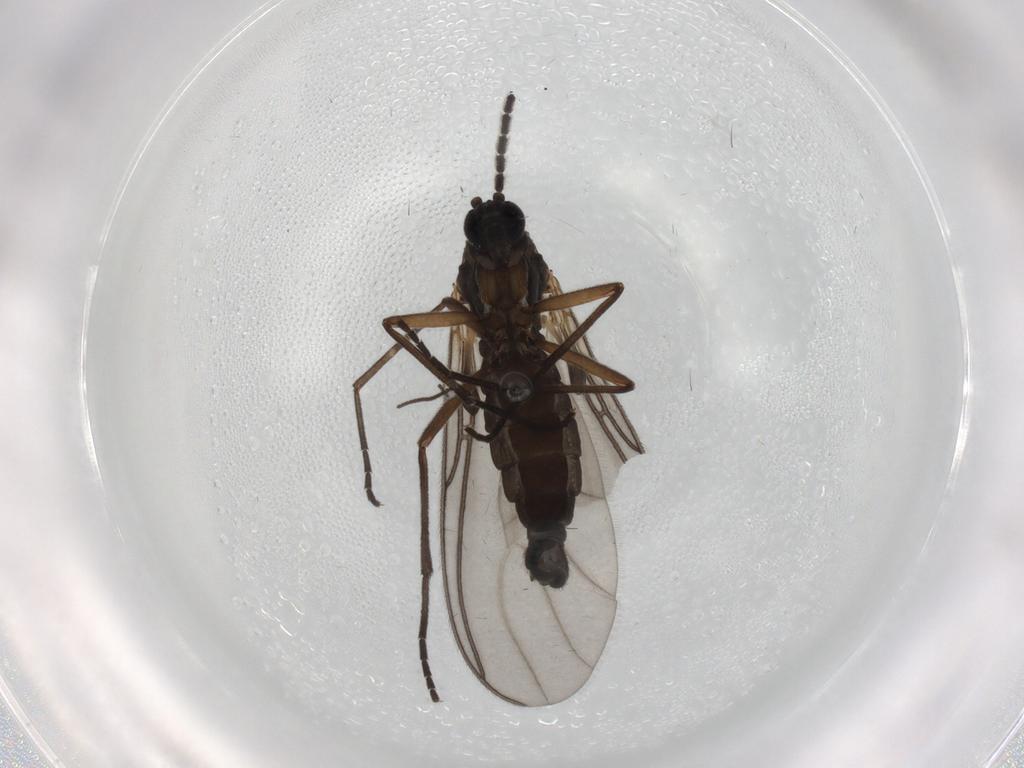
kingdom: Animalia
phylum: Arthropoda
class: Insecta
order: Diptera
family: Sciaridae
